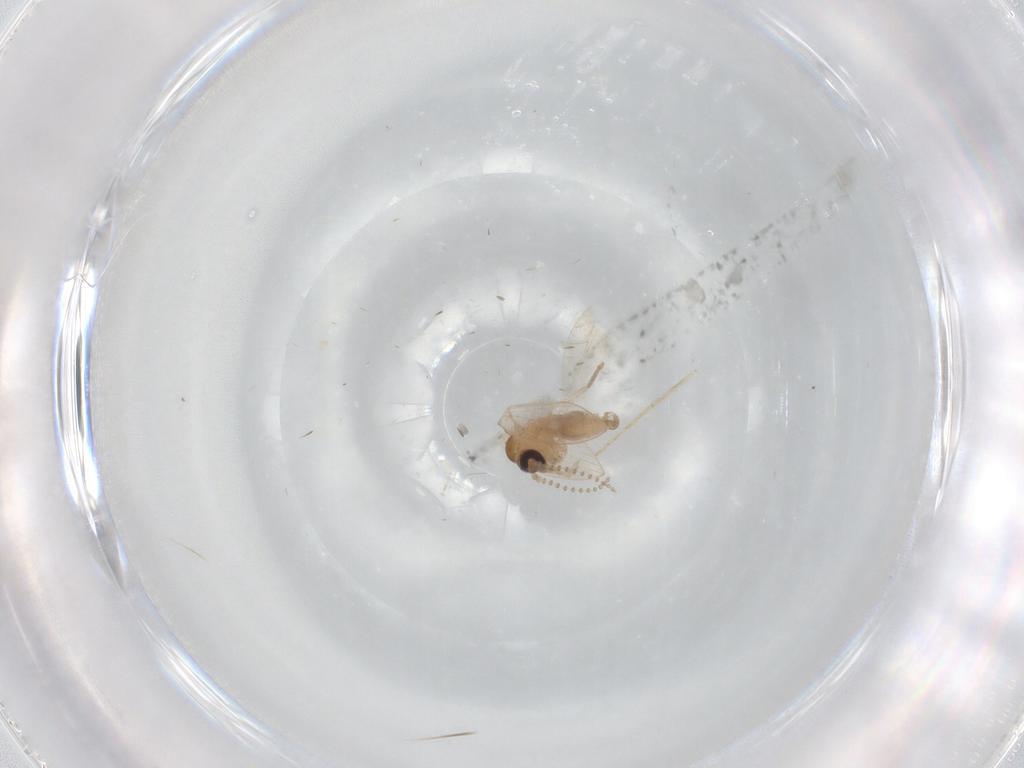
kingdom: Animalia
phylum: Arthropoda
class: Insecta
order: Diptera
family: Psychodidae
